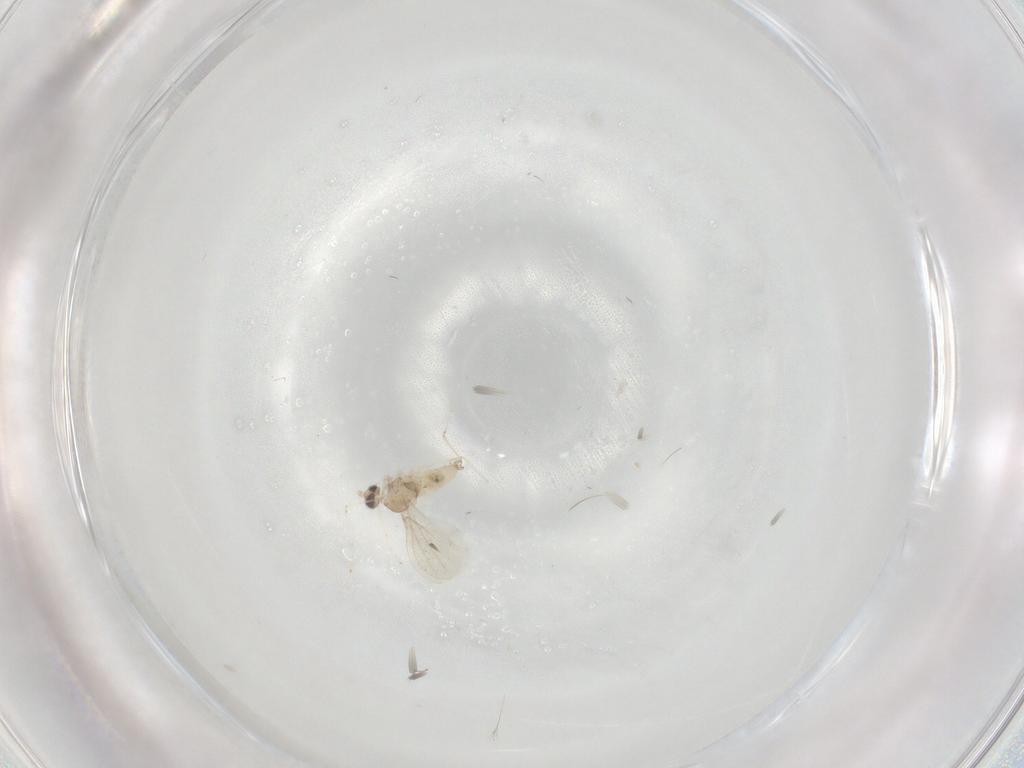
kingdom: Animalia
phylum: Arthropoda
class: Insecta
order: Diptera
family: Cecidomyiidae
